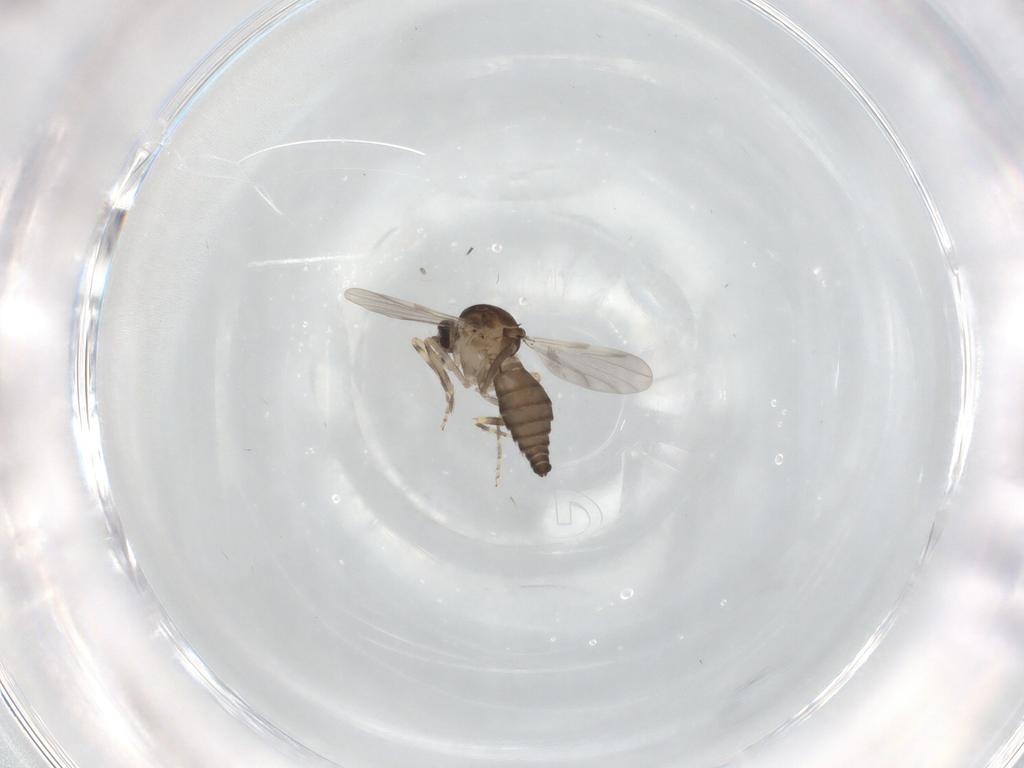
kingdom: Animalia
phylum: Arthropoda
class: Insecta
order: Diptera
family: Ceratopogonidae
